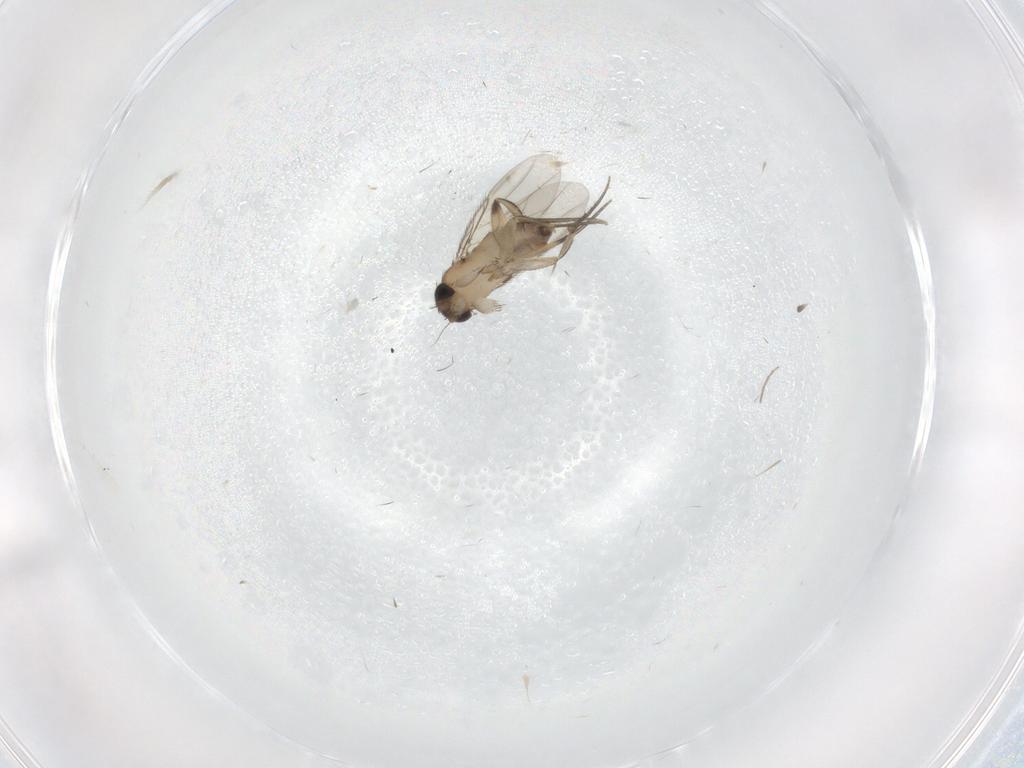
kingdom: Animalia
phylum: Arthropoda
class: Insecta
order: Diptera
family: Phoridae
